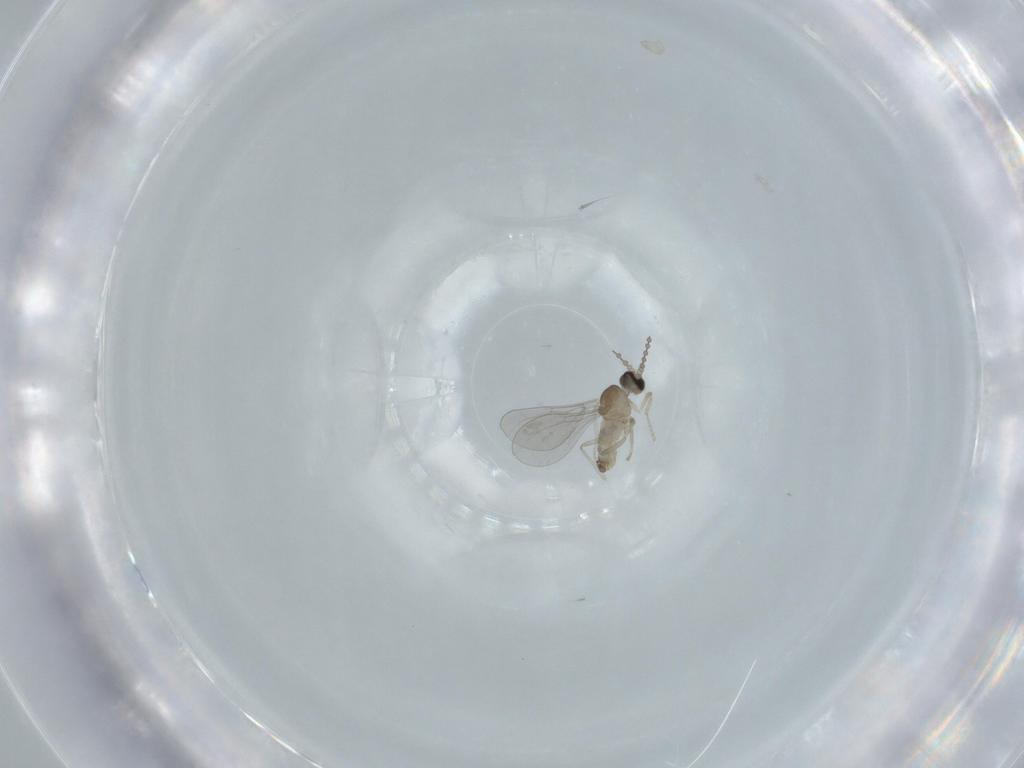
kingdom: Animalia
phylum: Arthropoda
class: Insecta
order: Diptera
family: Cecidomyiidae
